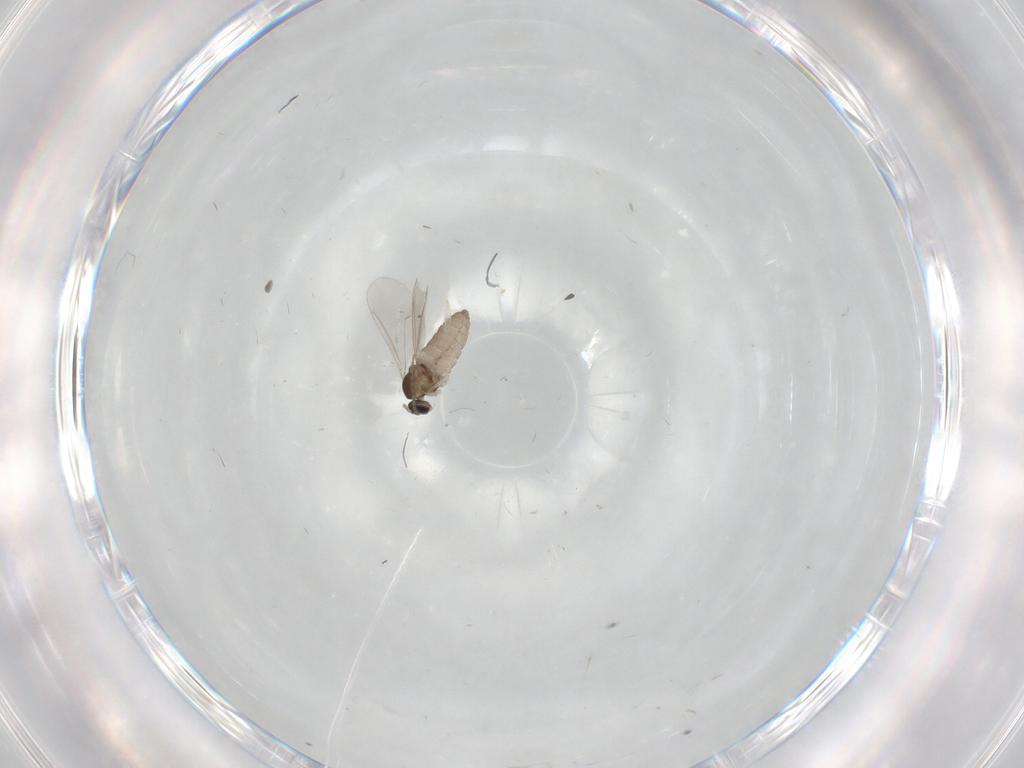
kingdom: Animalia
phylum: Arthropoda
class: Insecta
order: Diptera
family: Cecidomyiidae
